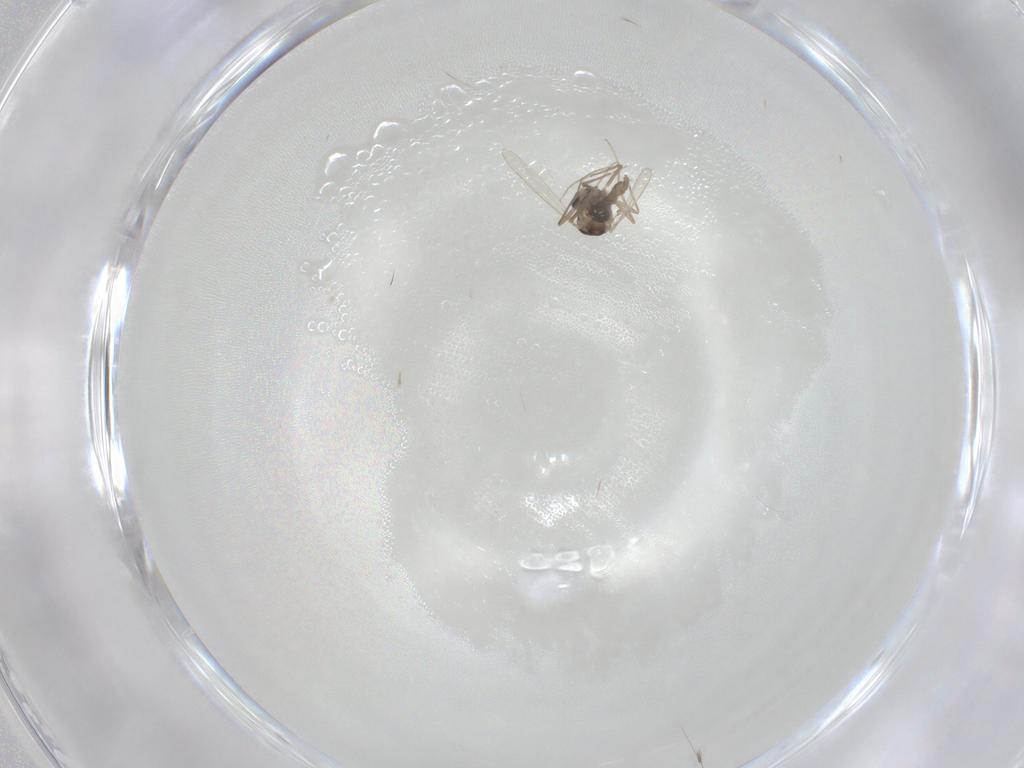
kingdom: Animalia
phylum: Arthropoda
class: Insecta
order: Diptera
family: Chironomidae
